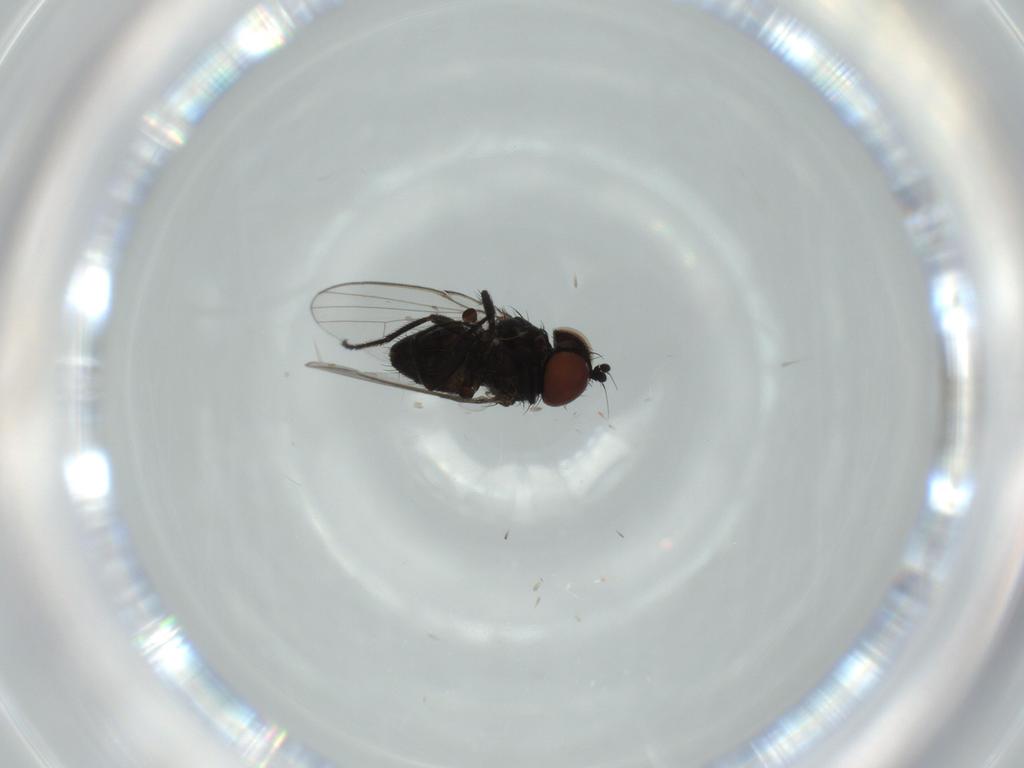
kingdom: Animalia
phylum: Arthropoda
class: Insecta
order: Diptera
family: Milichiidae
